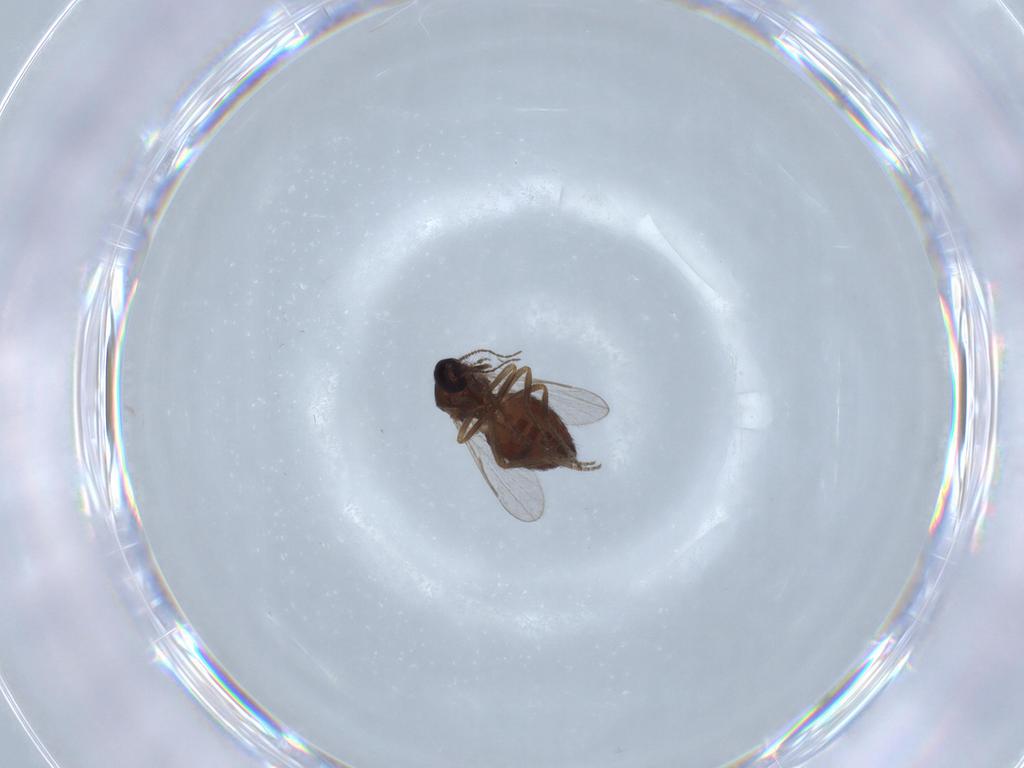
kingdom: Animalia
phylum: Arthropoda
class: Insecta
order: Diptera
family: Ceratopogonidae
